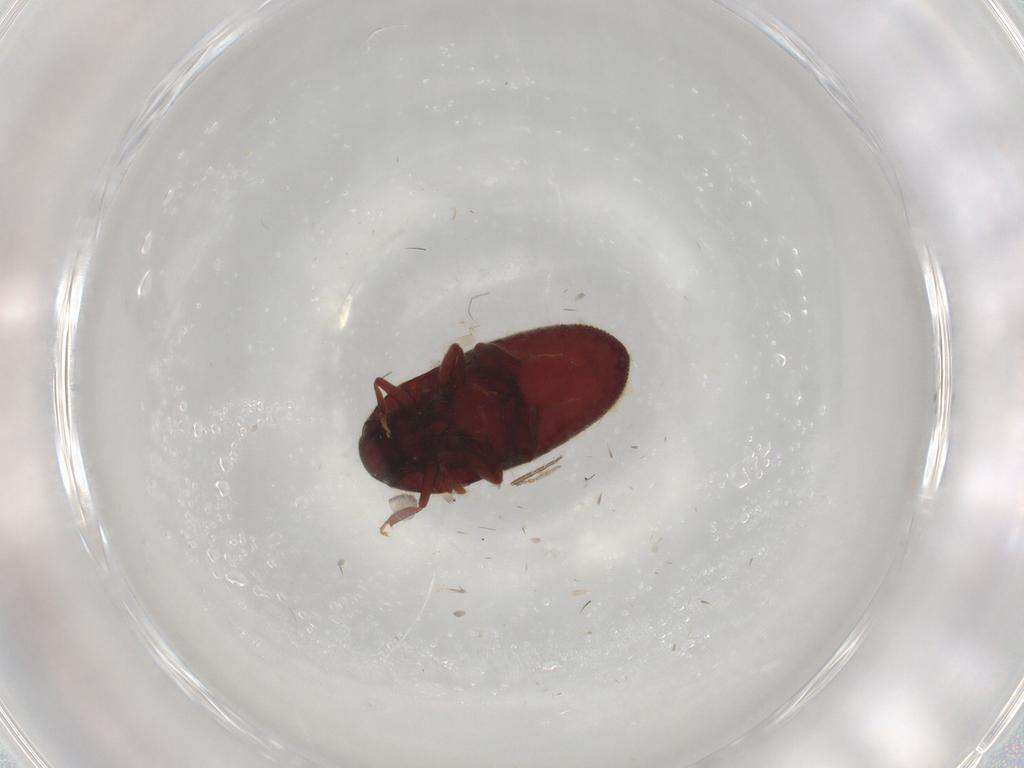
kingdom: Animalia
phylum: Arthropoda
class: Insecta
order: Coleoptera
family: Throscidae
